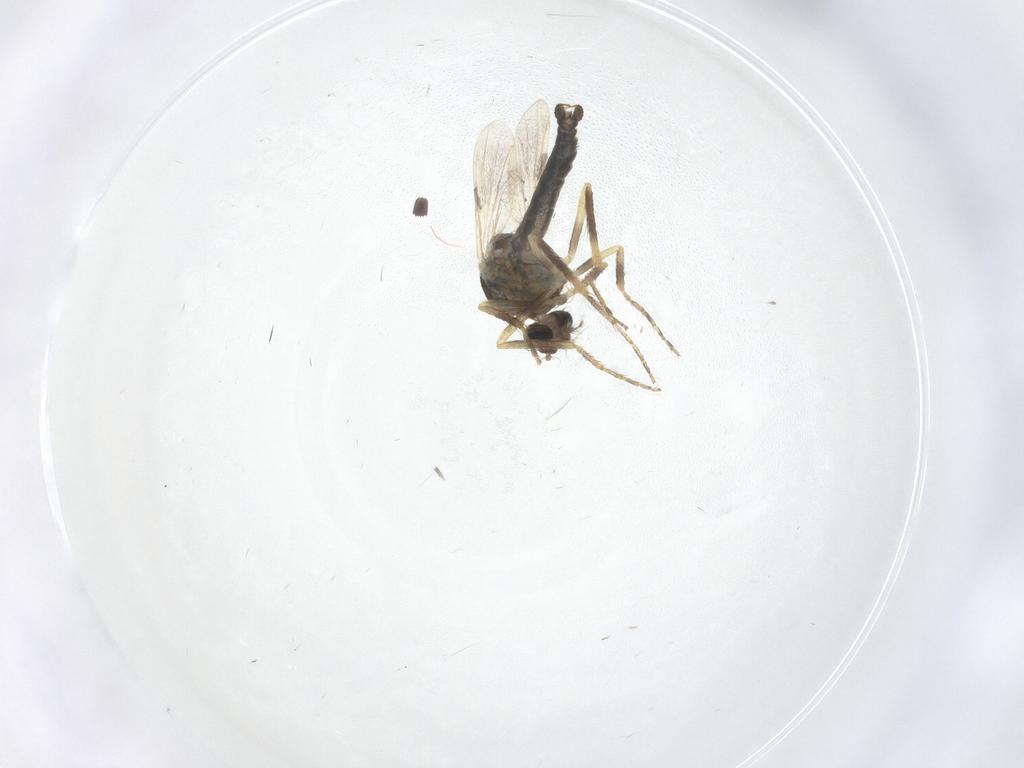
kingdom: Animalia
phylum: Arthropoda
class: Insecta
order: Diptera
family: Ceratopogonidae
